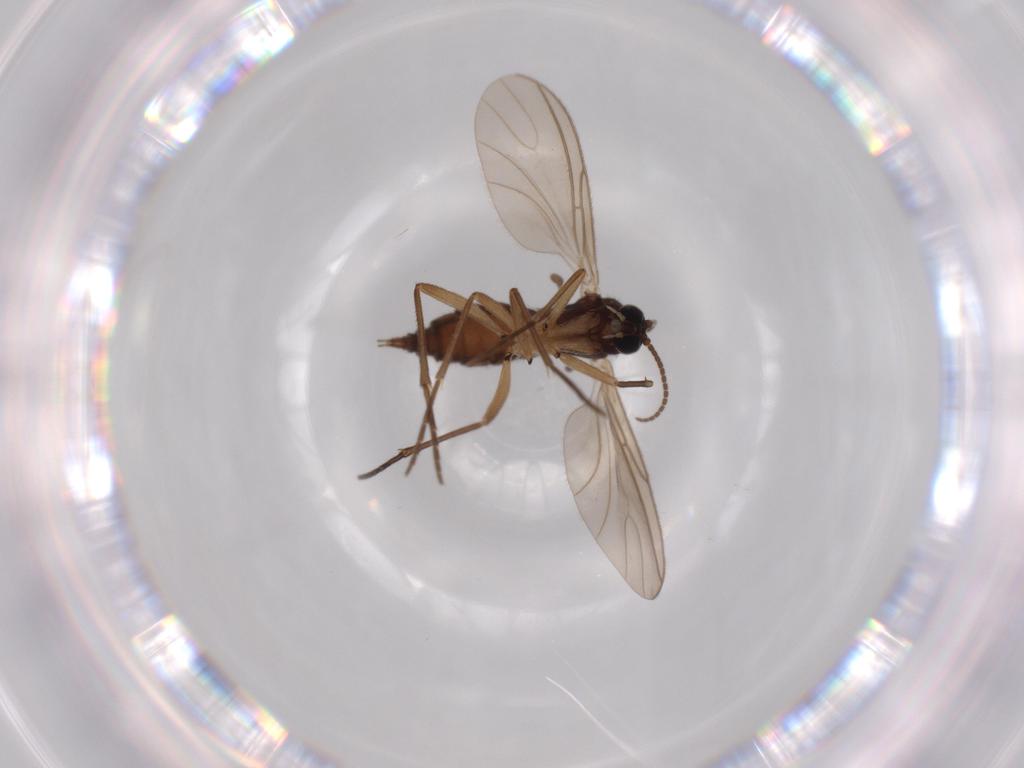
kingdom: Animalia
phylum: Arthropoda
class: Insecta
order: Diptera
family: Sciaridae
